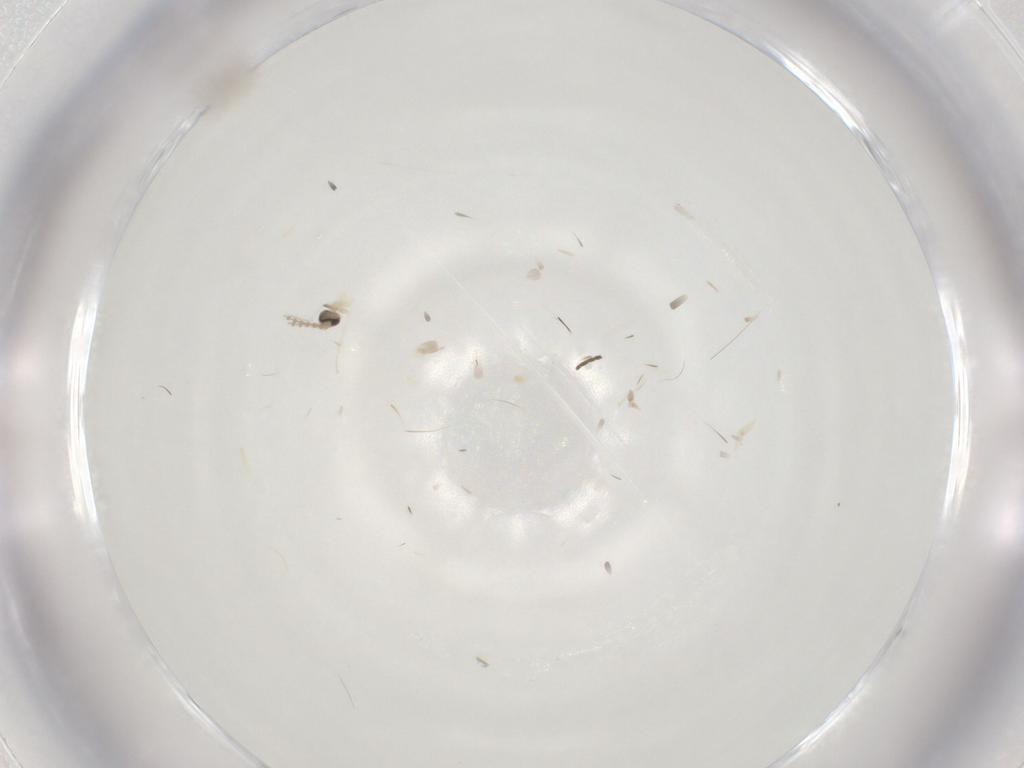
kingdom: Animalia
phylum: Arthropoda
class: Insecta
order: Diptera
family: Cecidomyiidae
